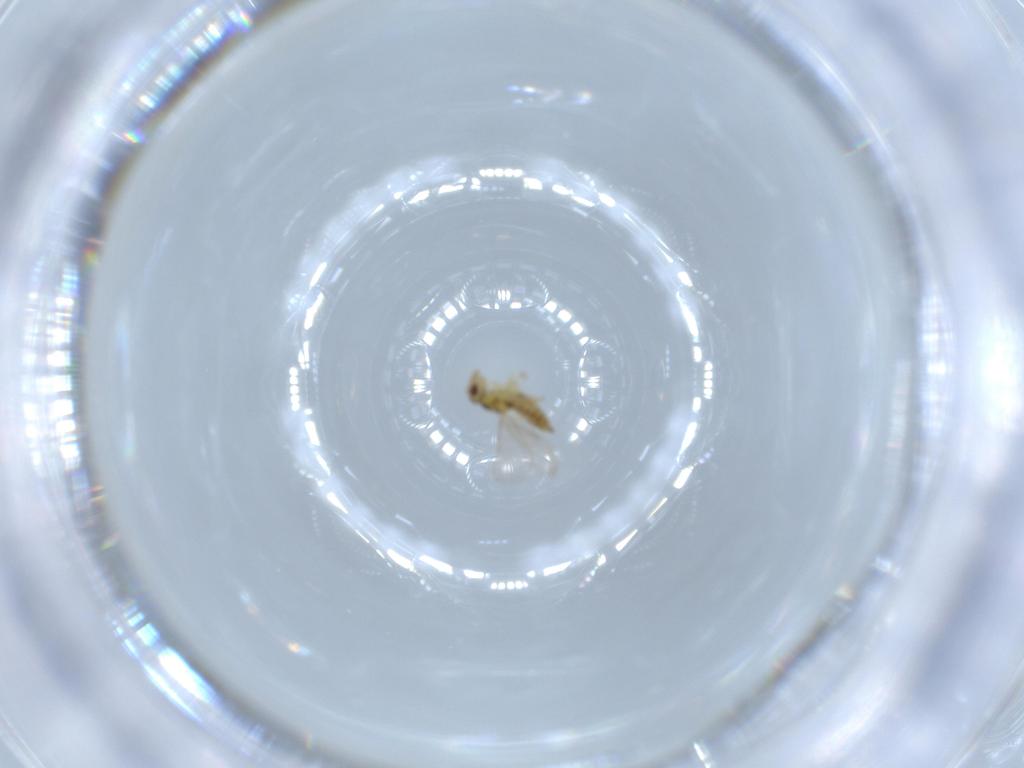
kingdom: Animalia
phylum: Arthropoda
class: Insecta
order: Hymenoptera
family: Eulophidae
